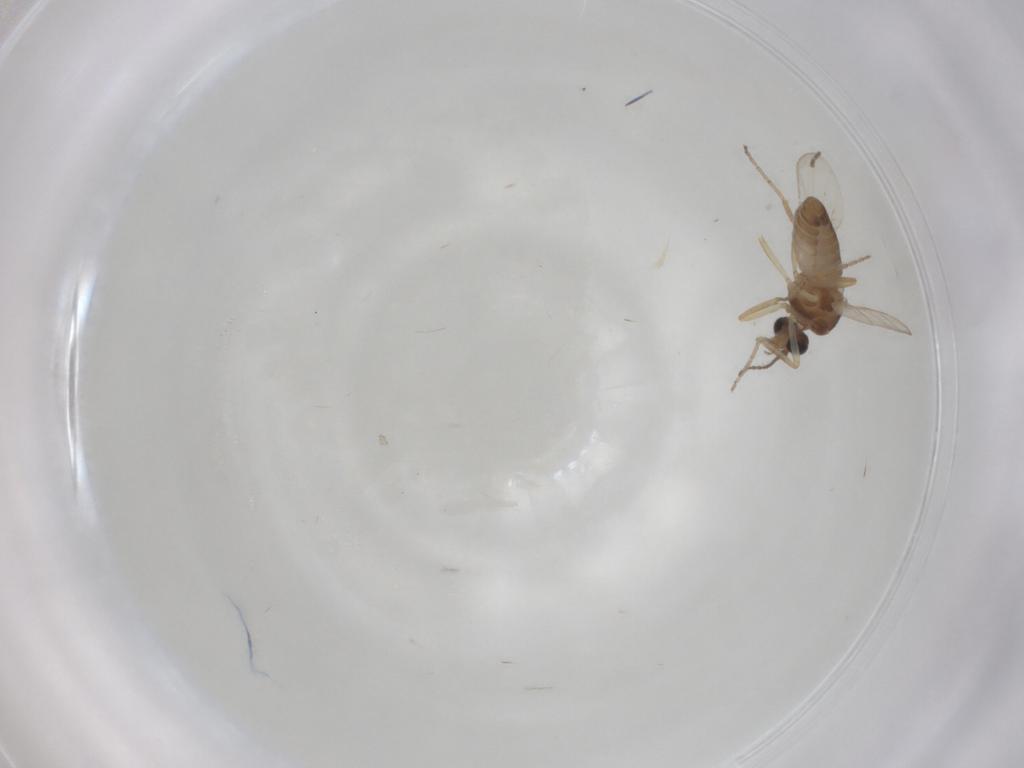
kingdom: Animalia
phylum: Arthropoda
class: Insecta
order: Diptera
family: Ceratopogonidae
